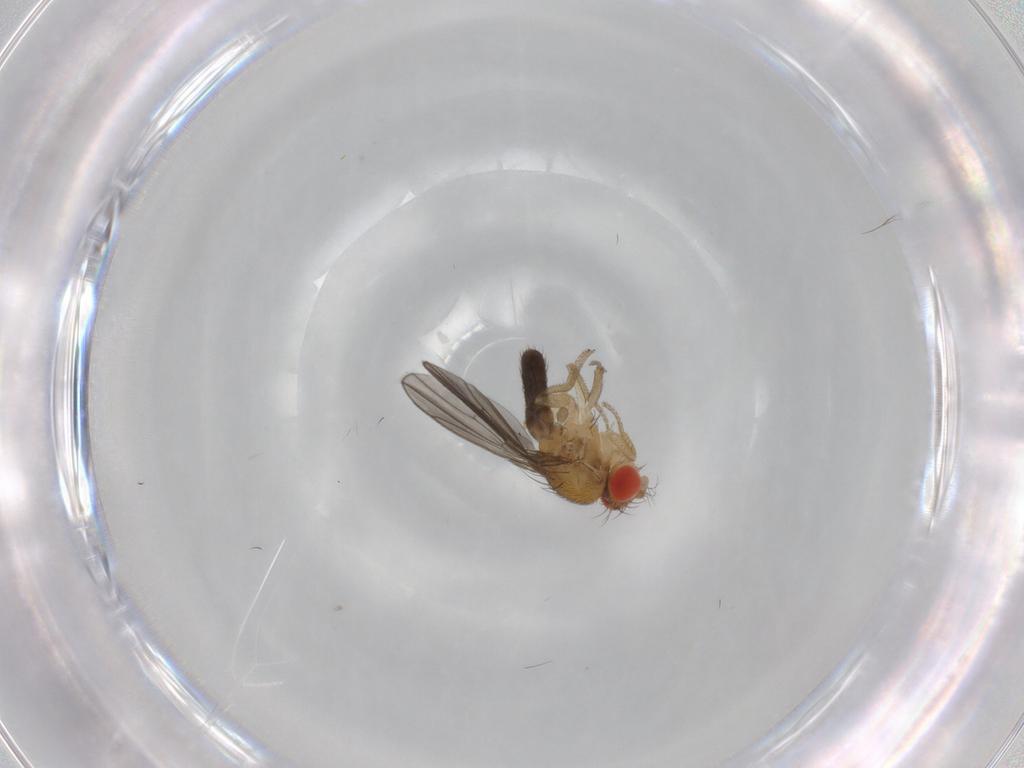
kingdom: Animalia
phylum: Arthropoda
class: Insecta
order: Diptera
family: Drosophilidae
